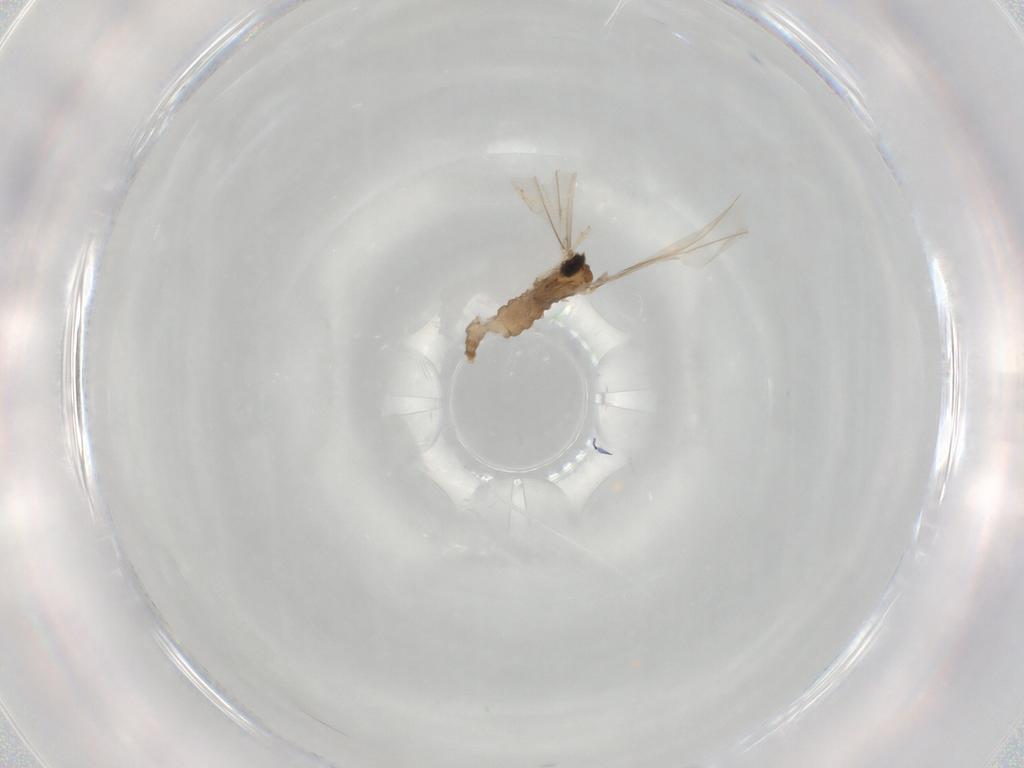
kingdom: Animalia
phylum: Arthropoda
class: Insecta
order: Diptera
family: Cecidomyiidae
